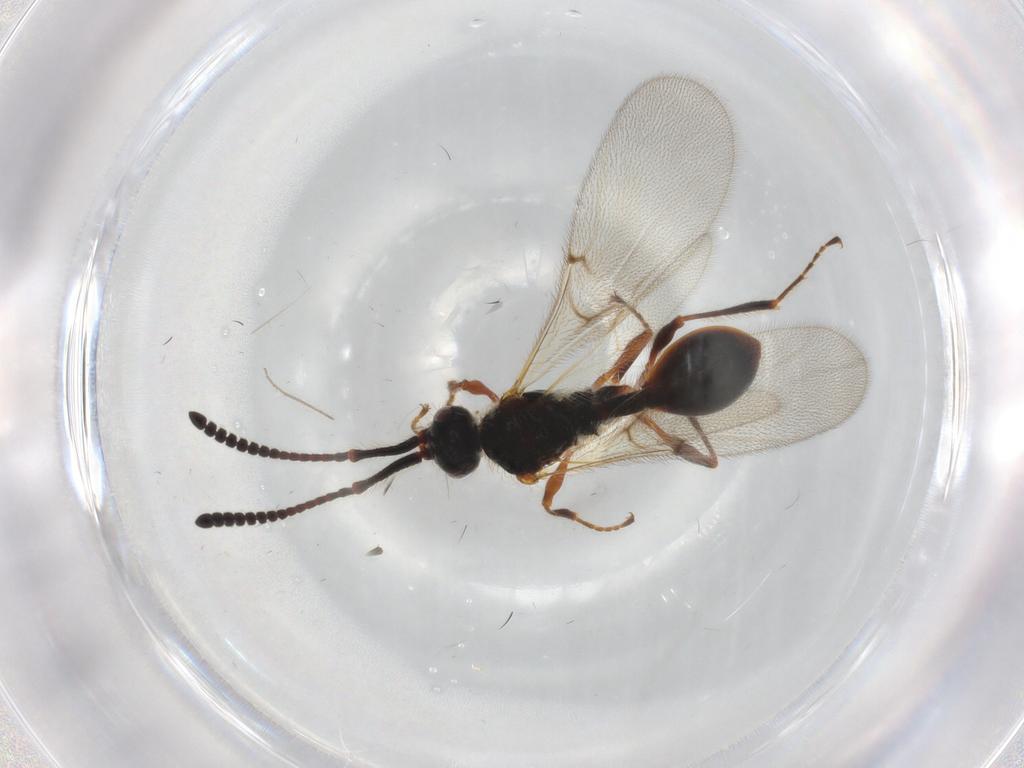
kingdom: Animalia
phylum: Arthropoda
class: Insecta
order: Hymenoptera
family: Diapriidae
